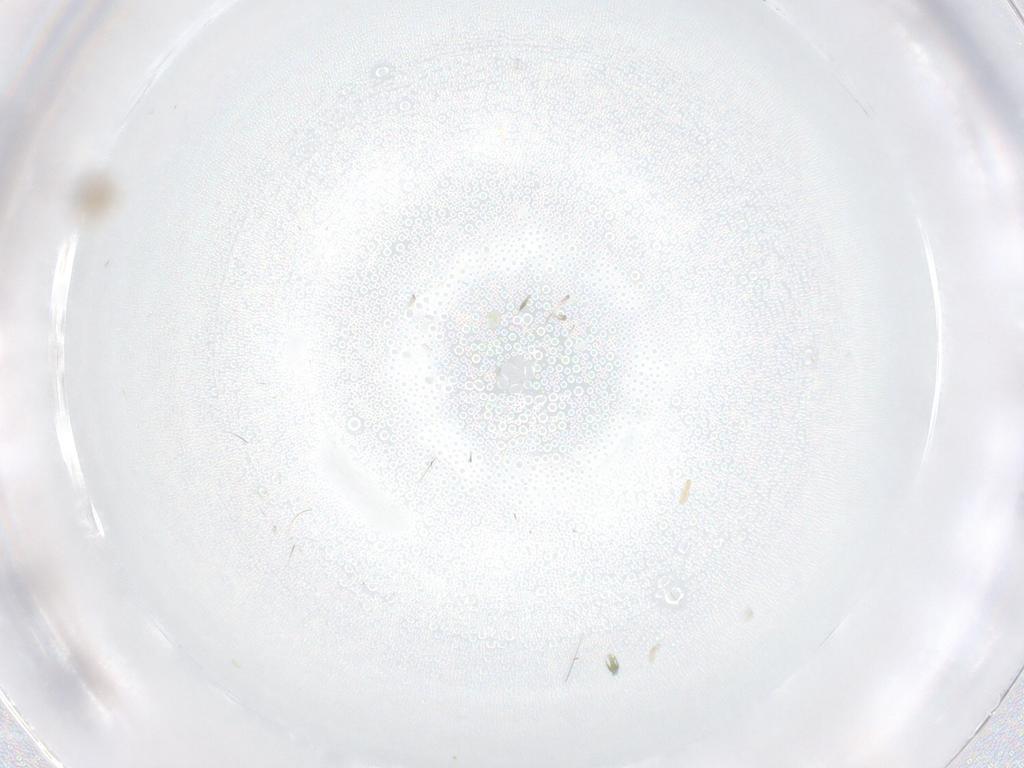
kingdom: Animalia
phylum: Arthropoda
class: Insecta
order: Diptera
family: Cecidomyiidae
